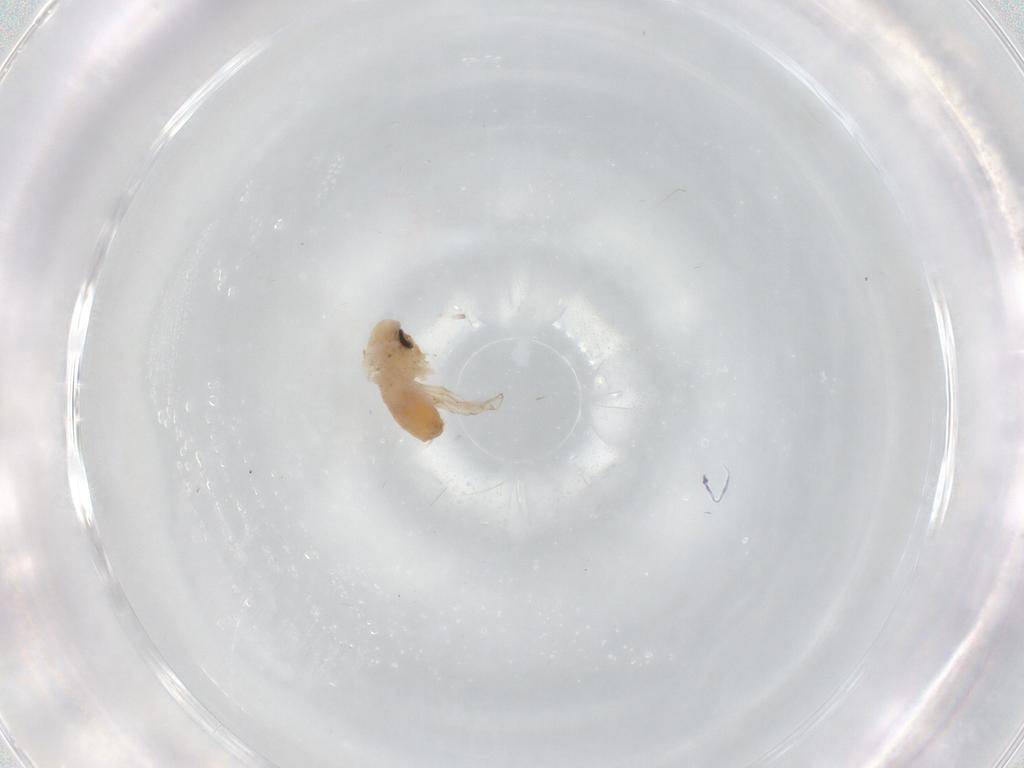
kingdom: Animalia
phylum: Arthropoda
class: Insecta
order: Diptera
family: Psychodidae
